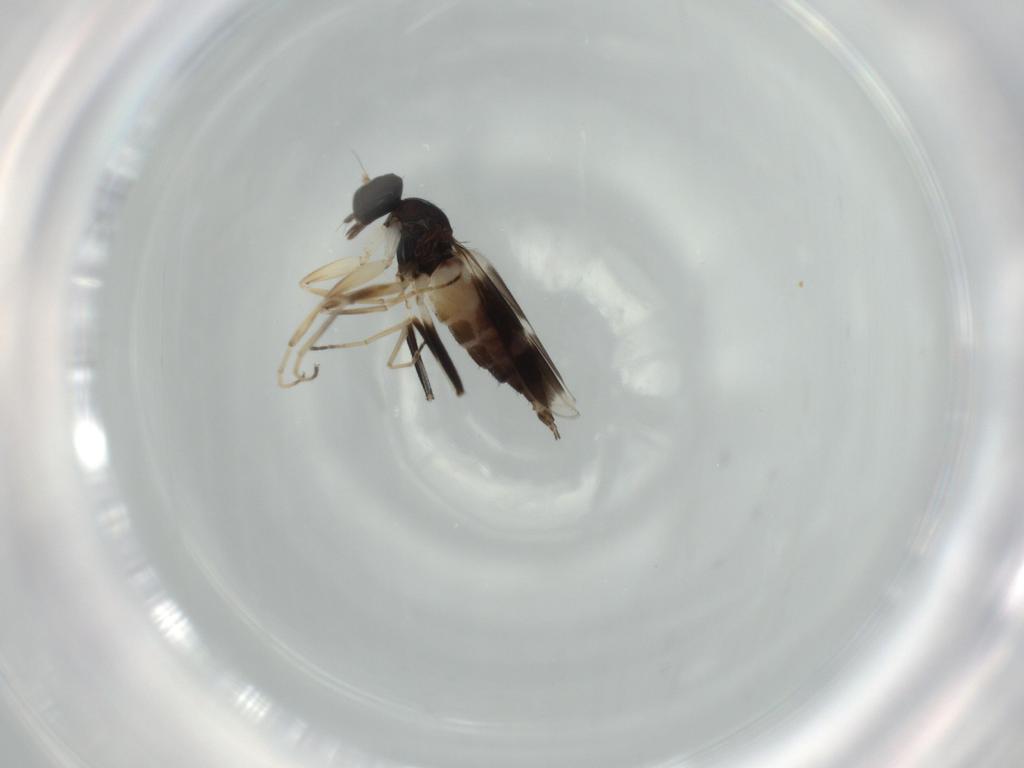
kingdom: Animalia
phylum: Arthropoda
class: Insecta
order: Diptera
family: Hybotidae
